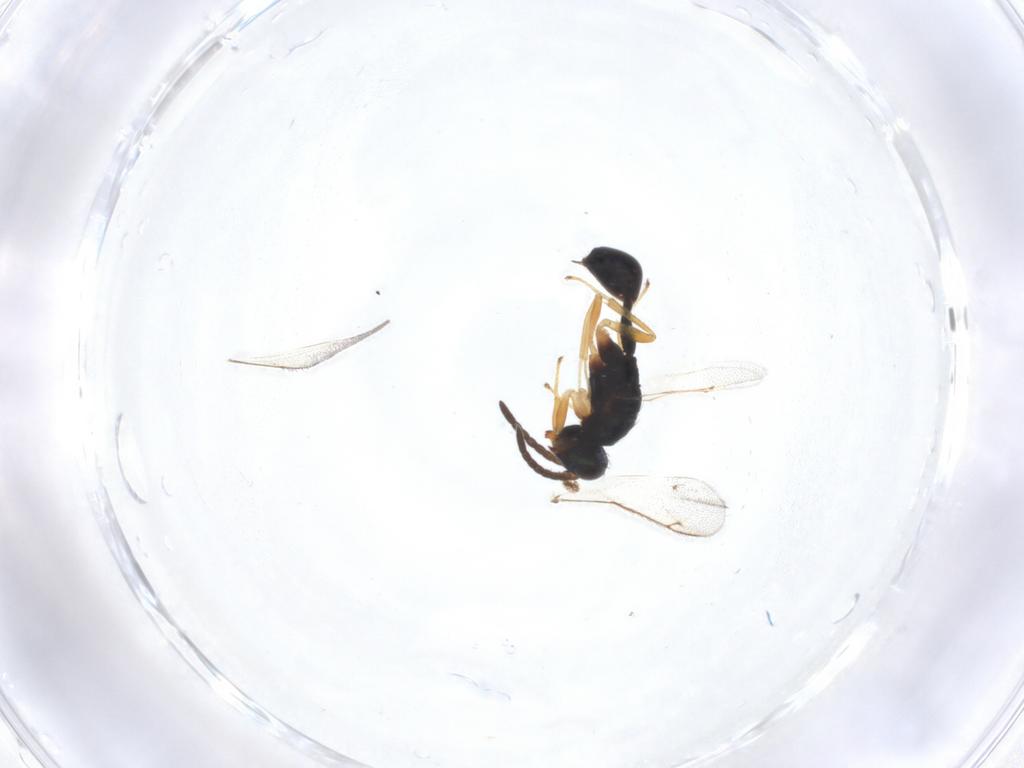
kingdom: Animalia
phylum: Arthropoda
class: Insecta
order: Hymenoptera
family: Diparidae
